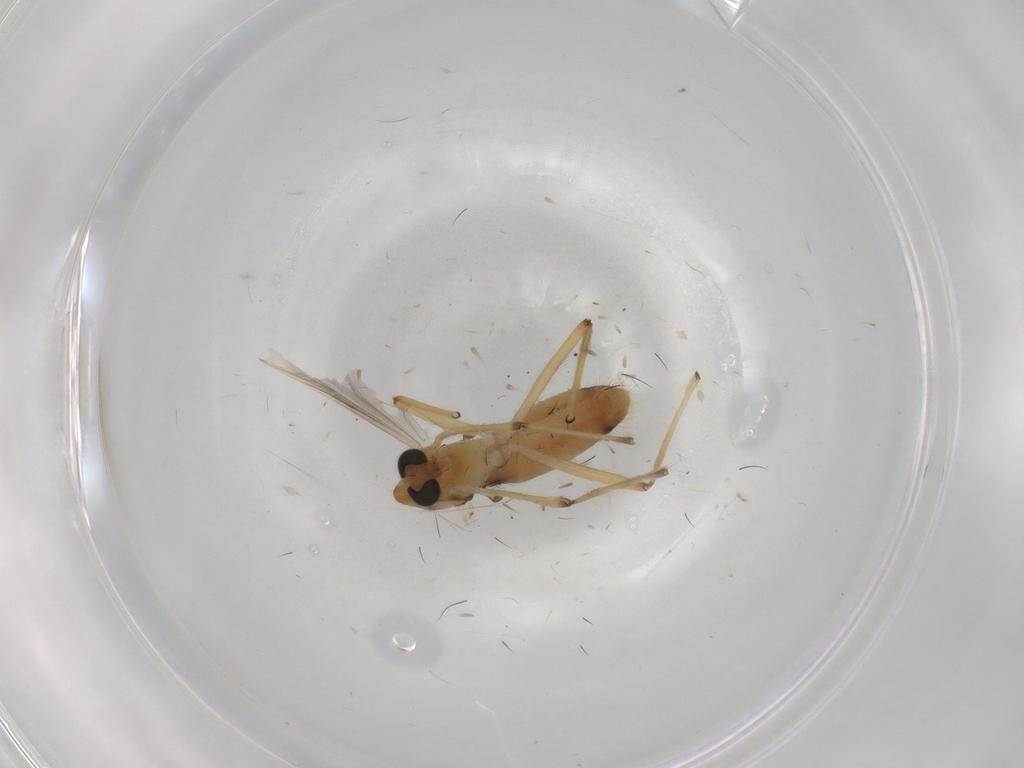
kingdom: Animalia
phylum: Arthropoda
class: Insecta
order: Diptera
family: Chironomidae
